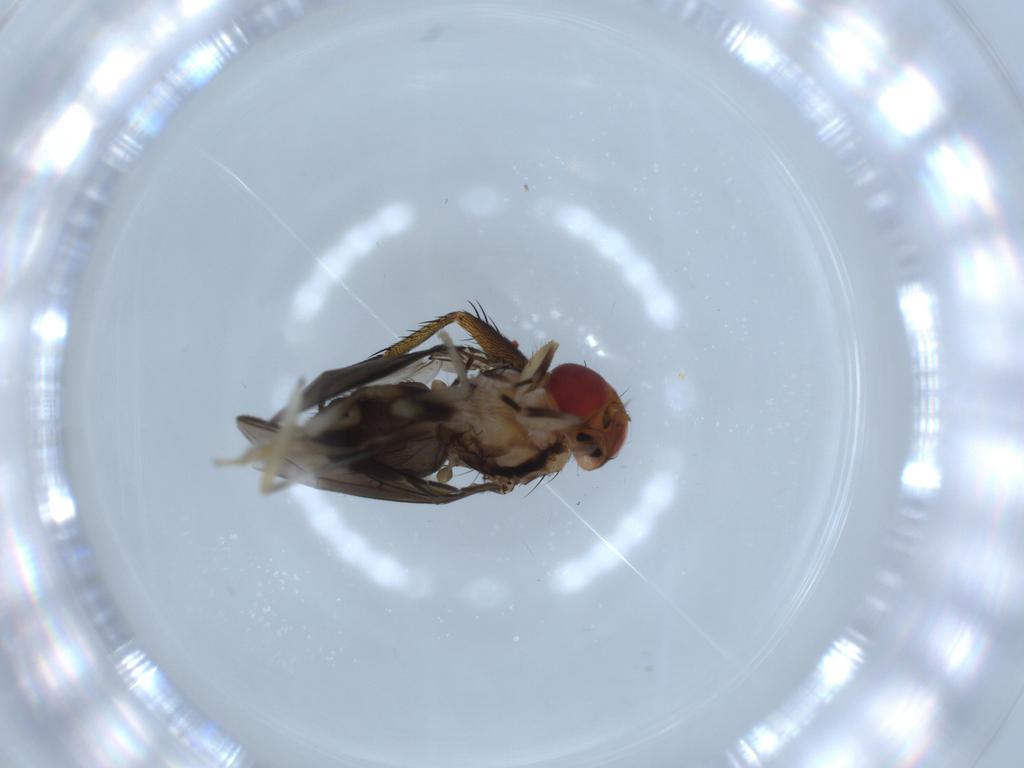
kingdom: Animalia
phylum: Arthropoda
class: Insecta
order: Diptera
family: Drosophilidae
